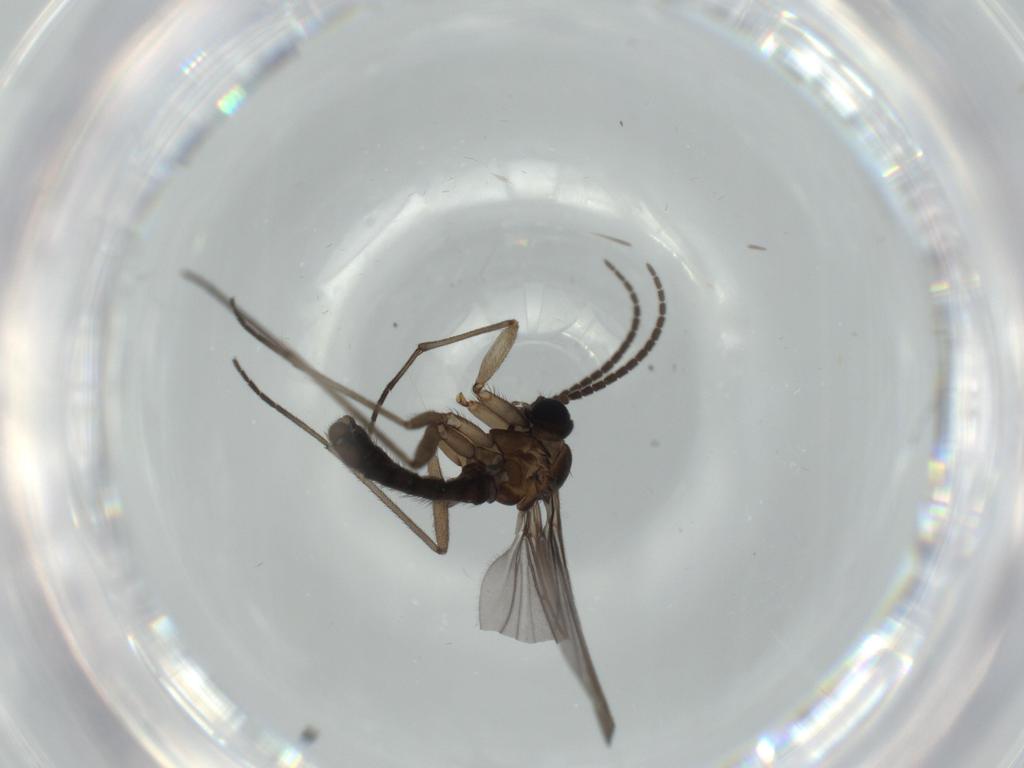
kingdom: Animalia
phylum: Arthropoda
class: Insecta
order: Diptera
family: Sciaridae
